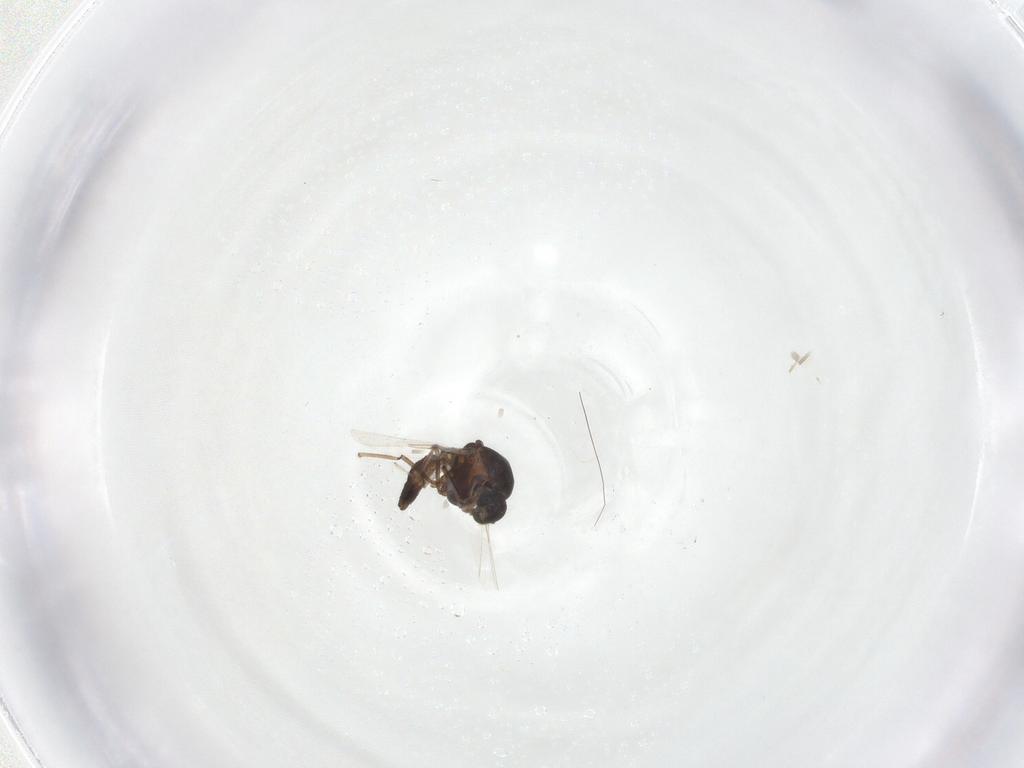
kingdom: Animalia
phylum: Arthropoda
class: Insecta
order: Diptera
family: Ceratopogonidae
